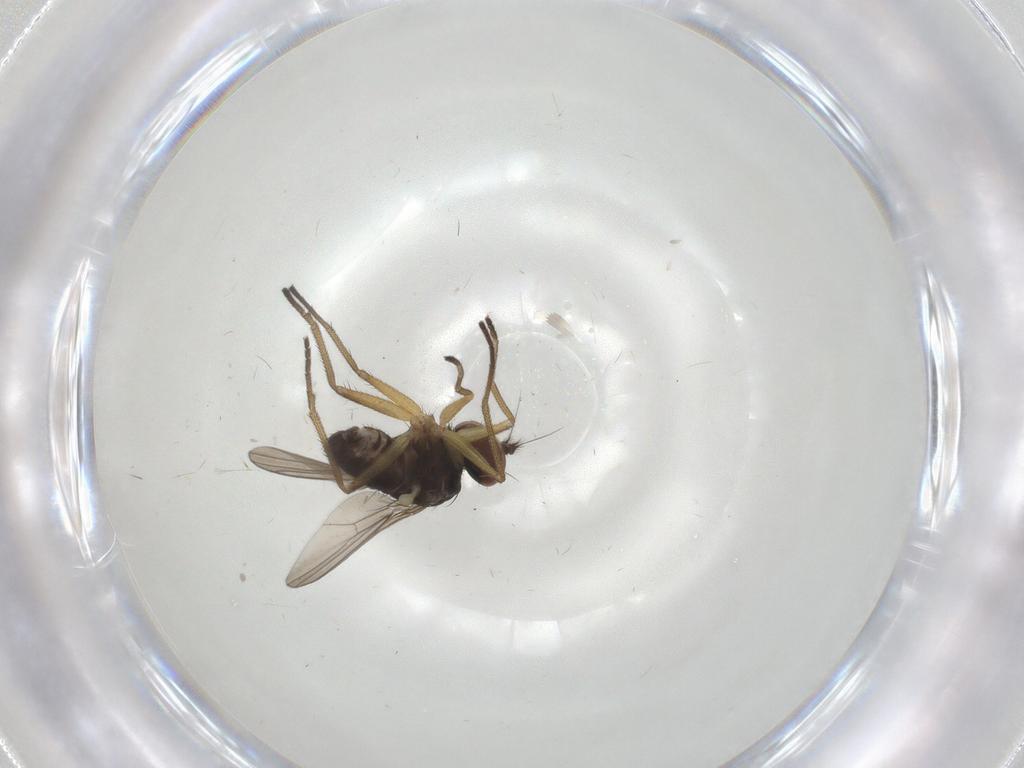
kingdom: Animalia
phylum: Arthropoda
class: Insecta
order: Diptera
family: Dolichopodidae
